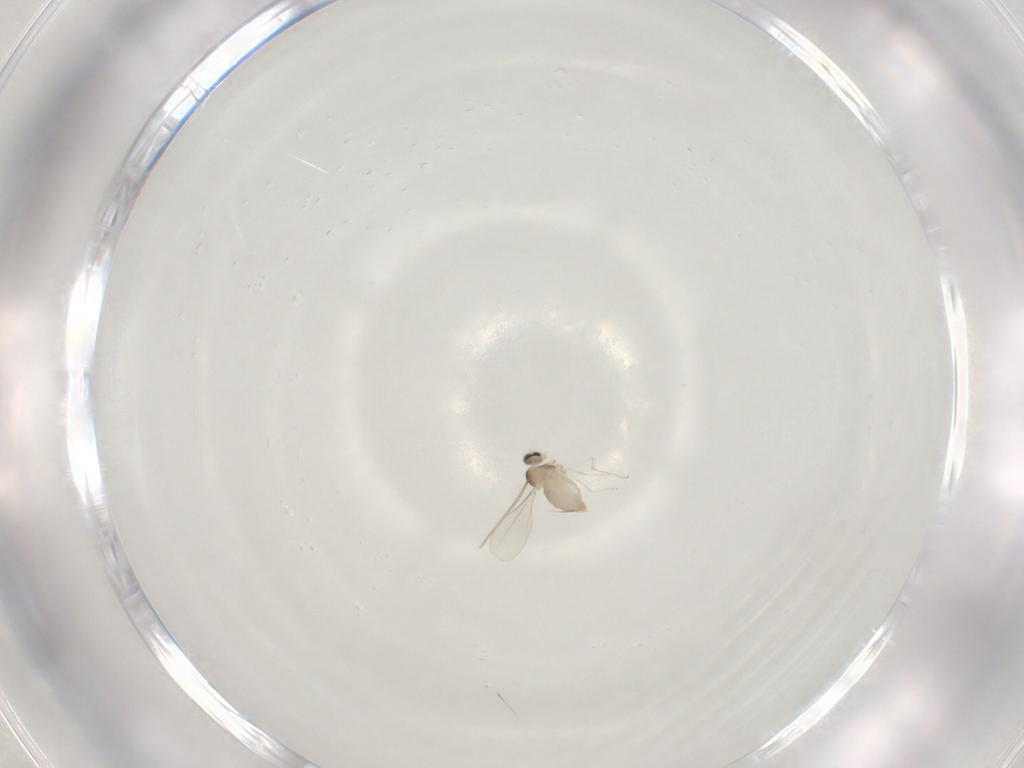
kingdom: Animalia
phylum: Arthropoda
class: Insecta
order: Diptera
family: Cecidomyiidae
